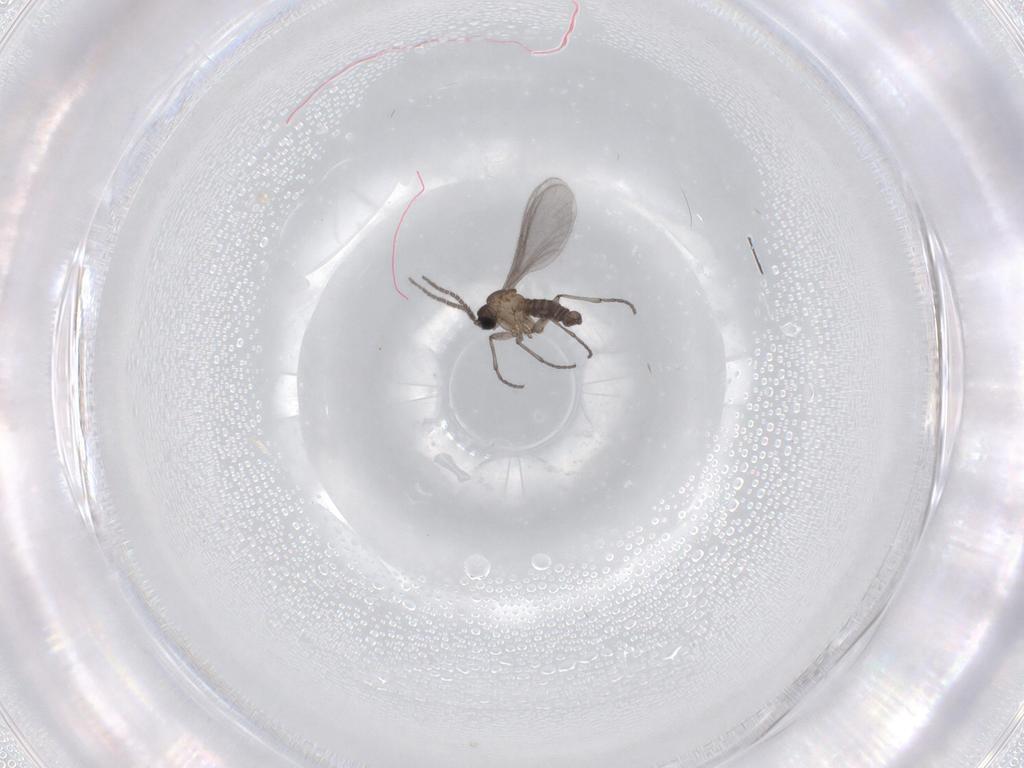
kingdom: Animalia
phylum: Arthropoda
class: Insecta
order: Diptera
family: Sciaridae
